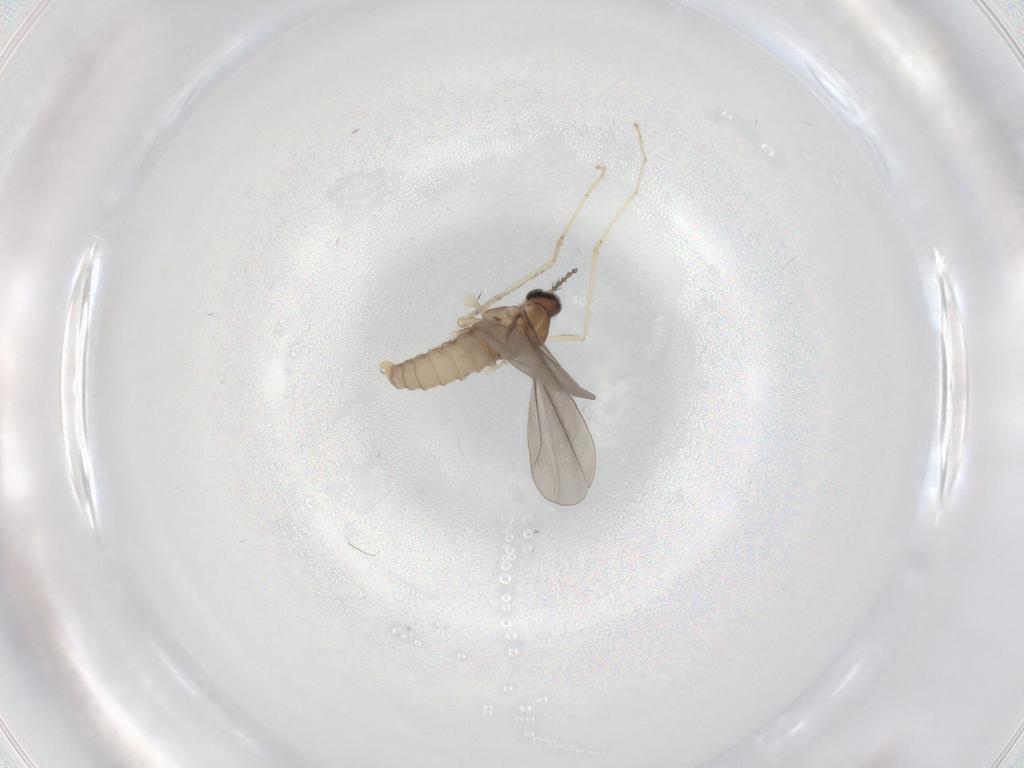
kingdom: Animalia
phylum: Arthropoda
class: Insecta
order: Diptera
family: Cecidomyiidae
